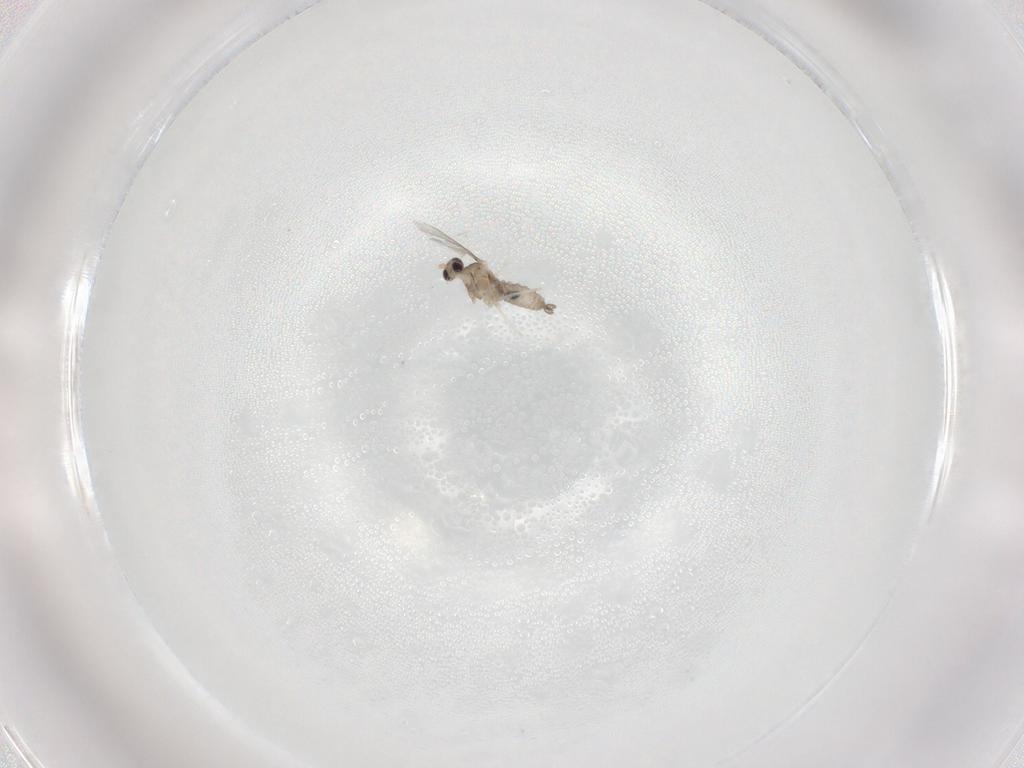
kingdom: Animalia
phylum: Arthropoda
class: Insecta
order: Diptera
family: Cecidomyiidae
